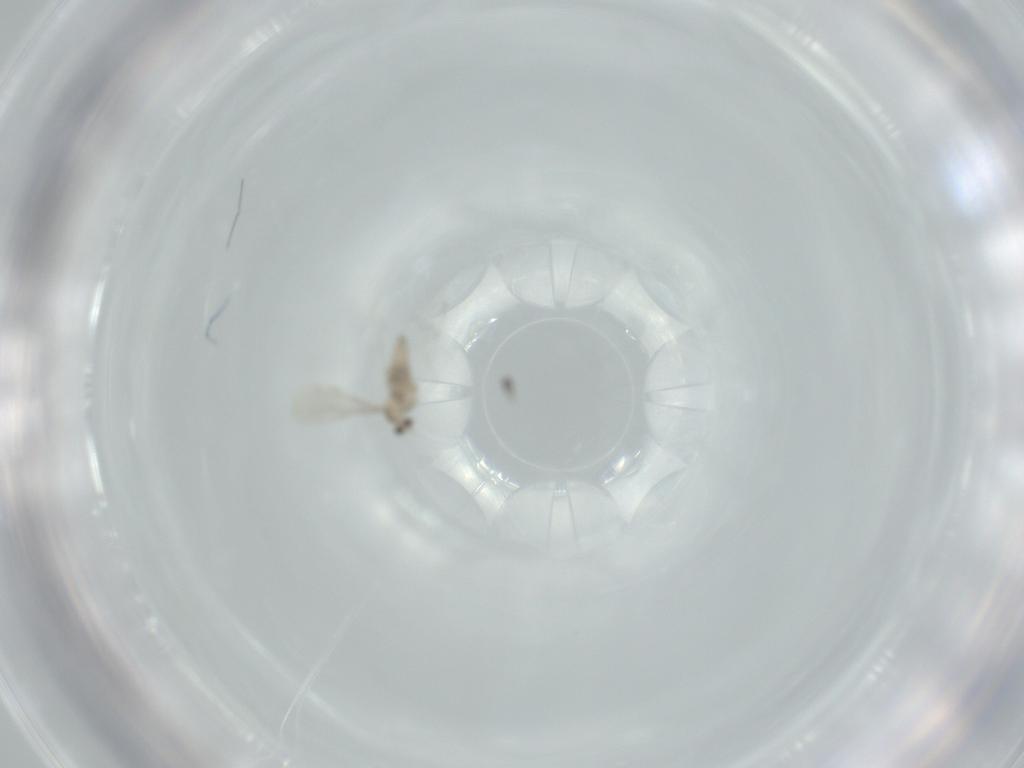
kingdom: Animalia
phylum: Arthropoda
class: Insecta
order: Diptera
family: Cecidomyiidae
